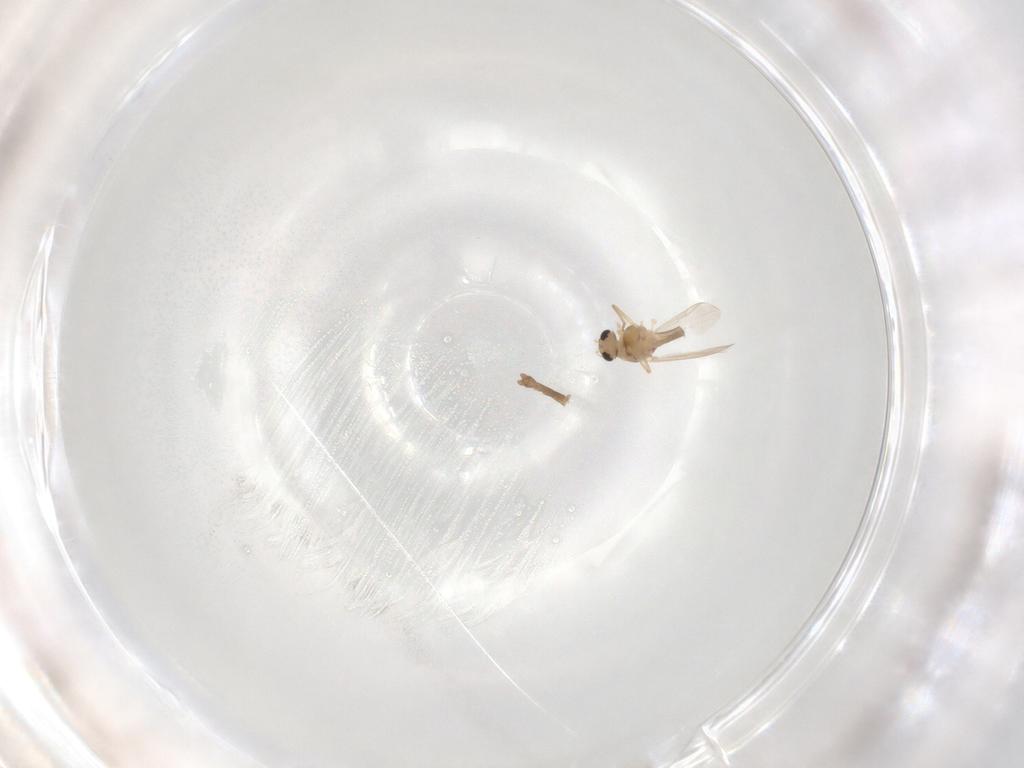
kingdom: Animalia
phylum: Arthropoda
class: Insecta
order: Diptera
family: Chironomidae
